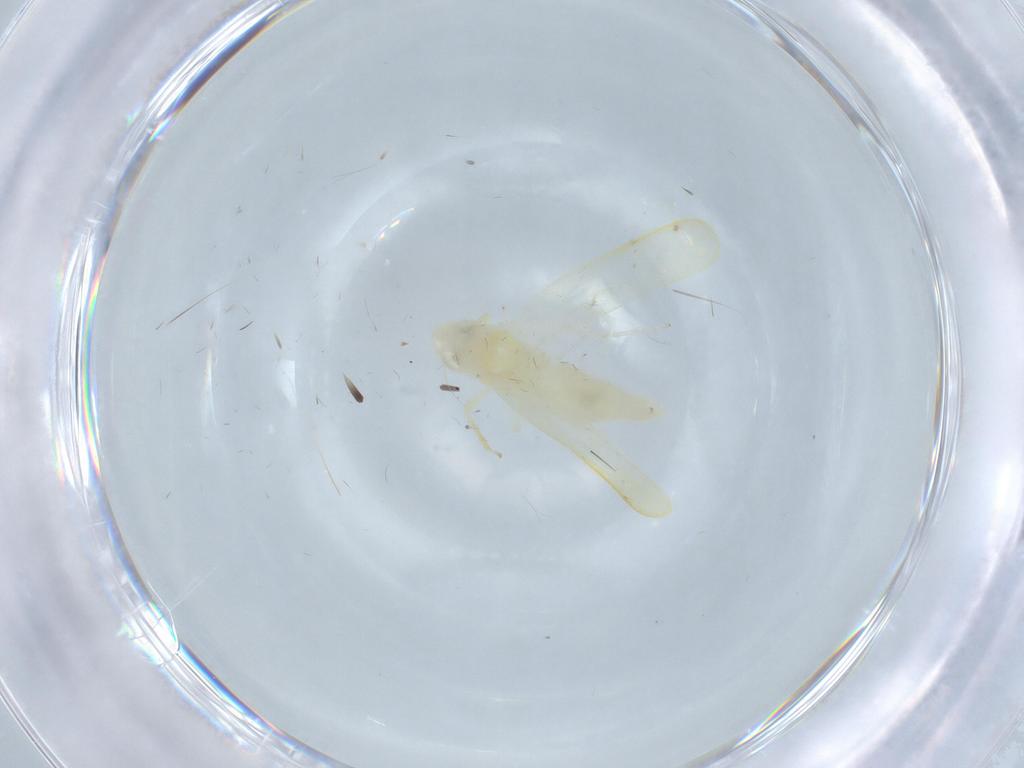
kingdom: Animalia
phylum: Arthropoda
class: Insecta
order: Hemiptera
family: Cicadellidae
